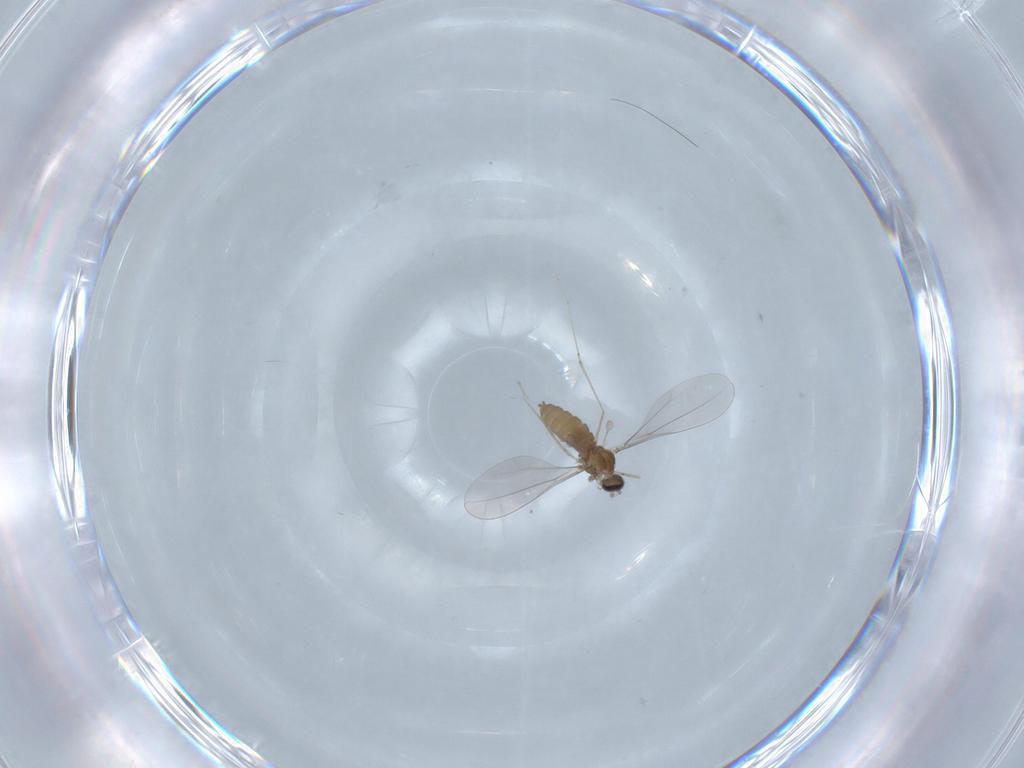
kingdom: Animalia
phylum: Arthropoda
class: Insecta
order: Diptera
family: Cecidomyiidae
